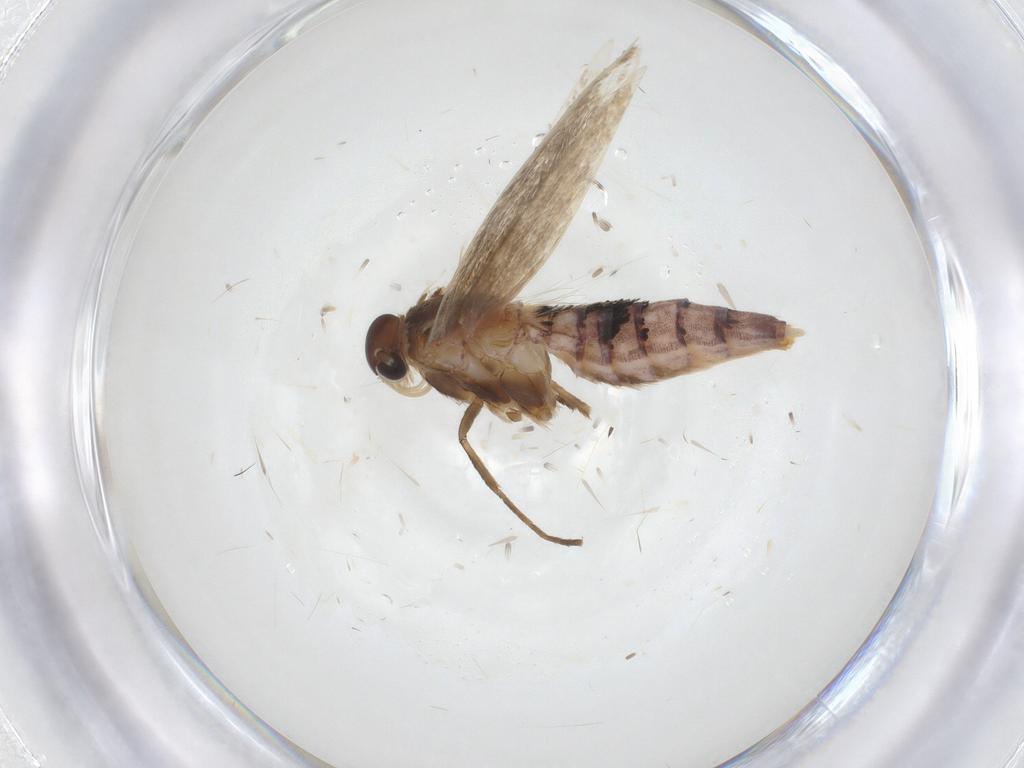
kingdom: Animalia
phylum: Arthropoda
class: Insecta
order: Lepidoptera
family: Cosmopterigidae
